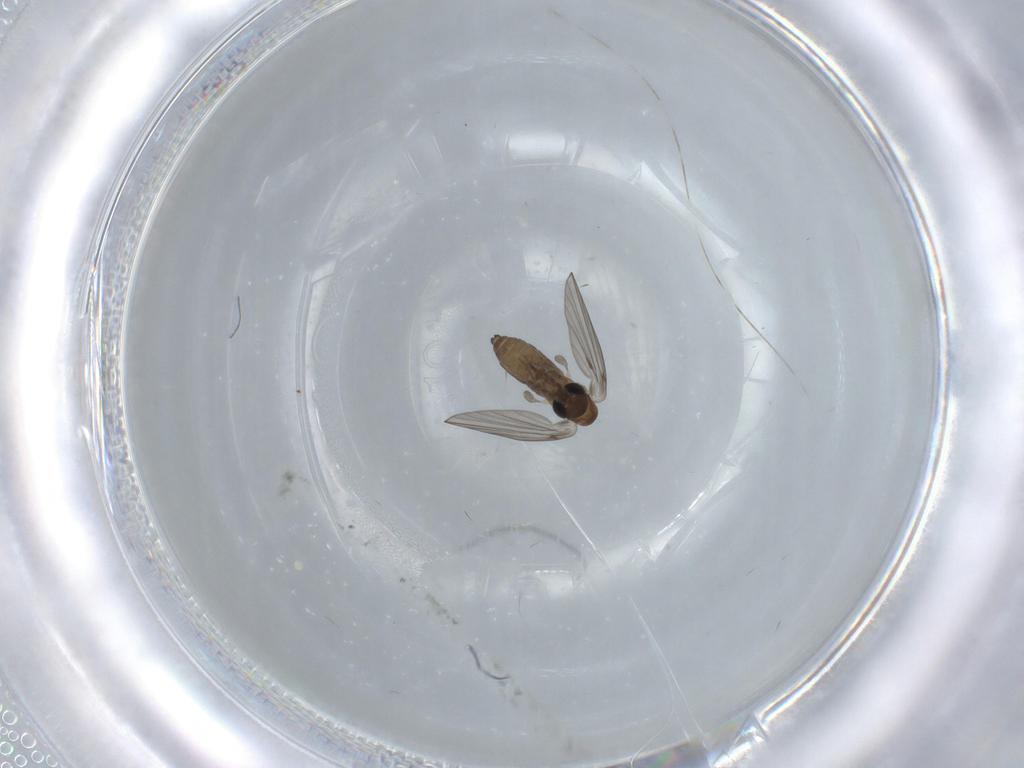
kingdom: Animalia
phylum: Arthropoda
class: Insecta
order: Diptera
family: Psychodidae
